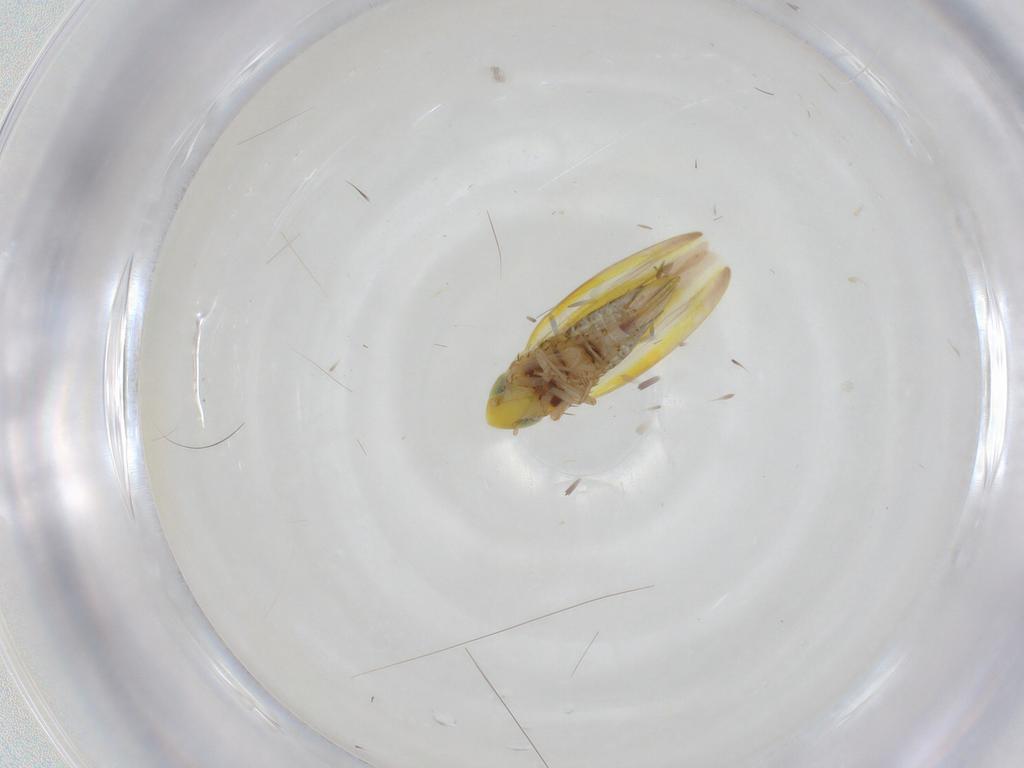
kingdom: Animalia
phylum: Arthropoda
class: Insecta
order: Hemiptera
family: Cicadellidae
